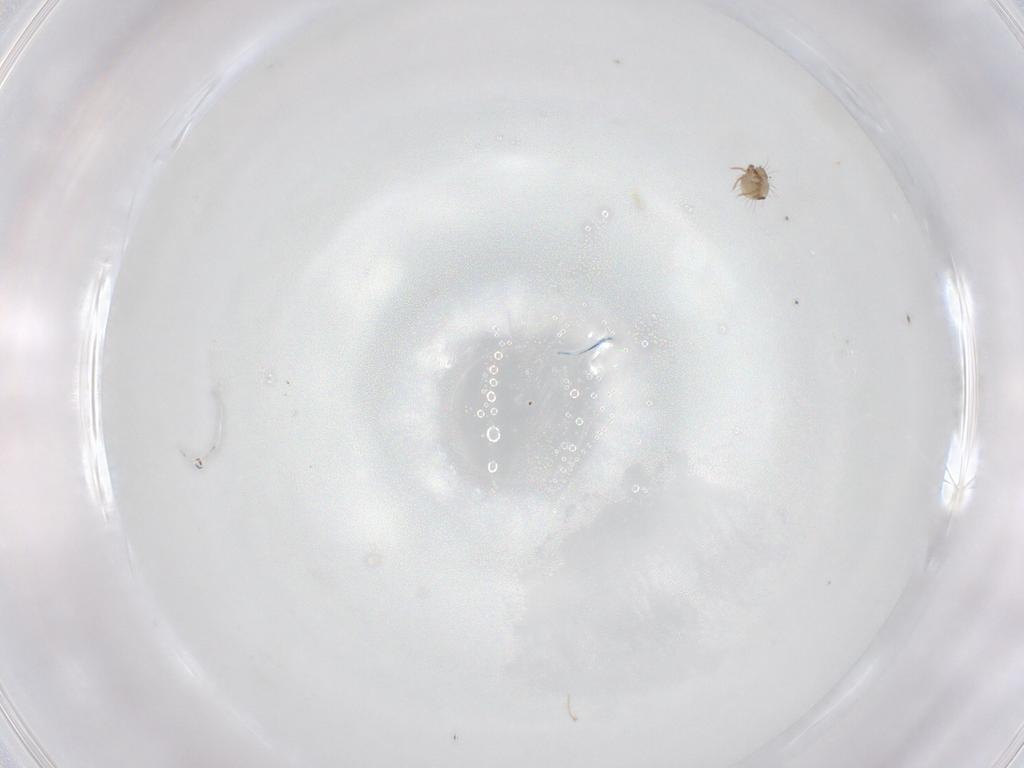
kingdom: Animalia
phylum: Arthropoda
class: Arachnida
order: Sarcoptiformes
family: Humerobatidae
